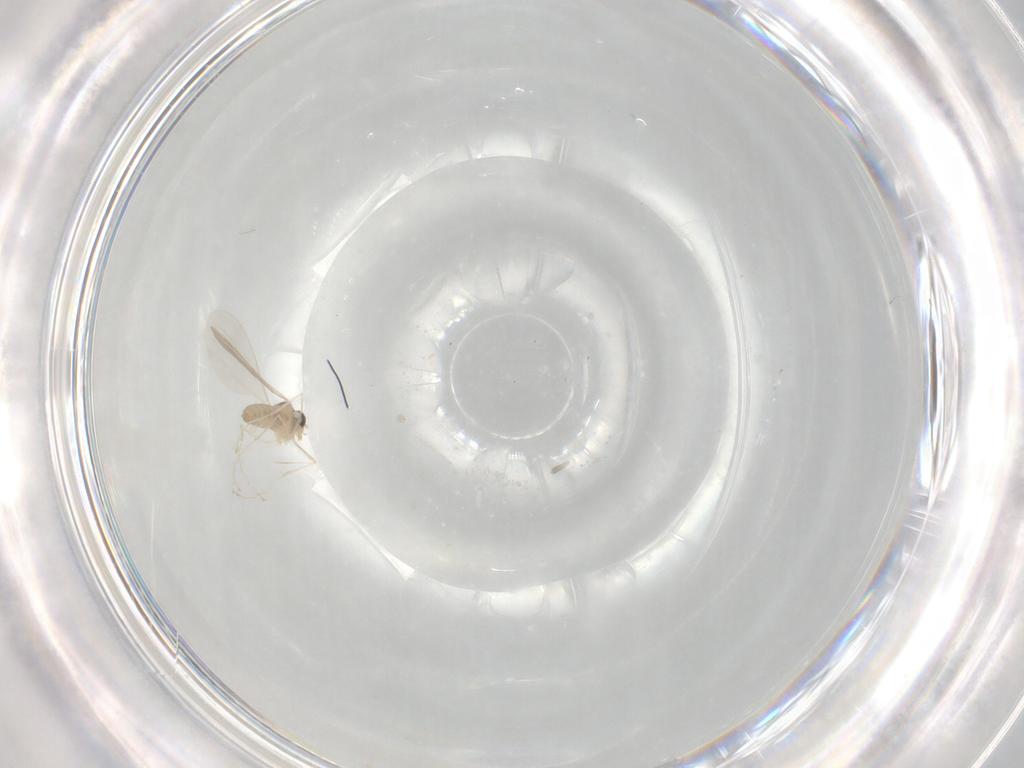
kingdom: Animalia
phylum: Arthropoda
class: Insecta
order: Diptera
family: Cecidomyiidae
